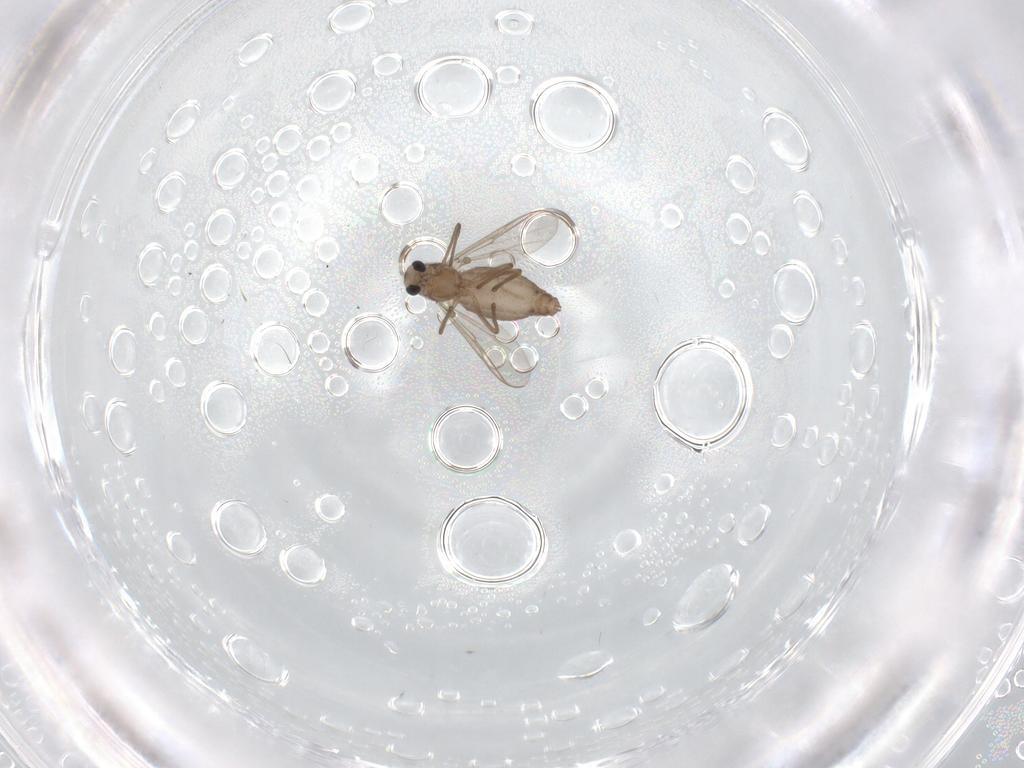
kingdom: Animalia
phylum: Arthropoda
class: Insecta
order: Diptera
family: Chironomidae
